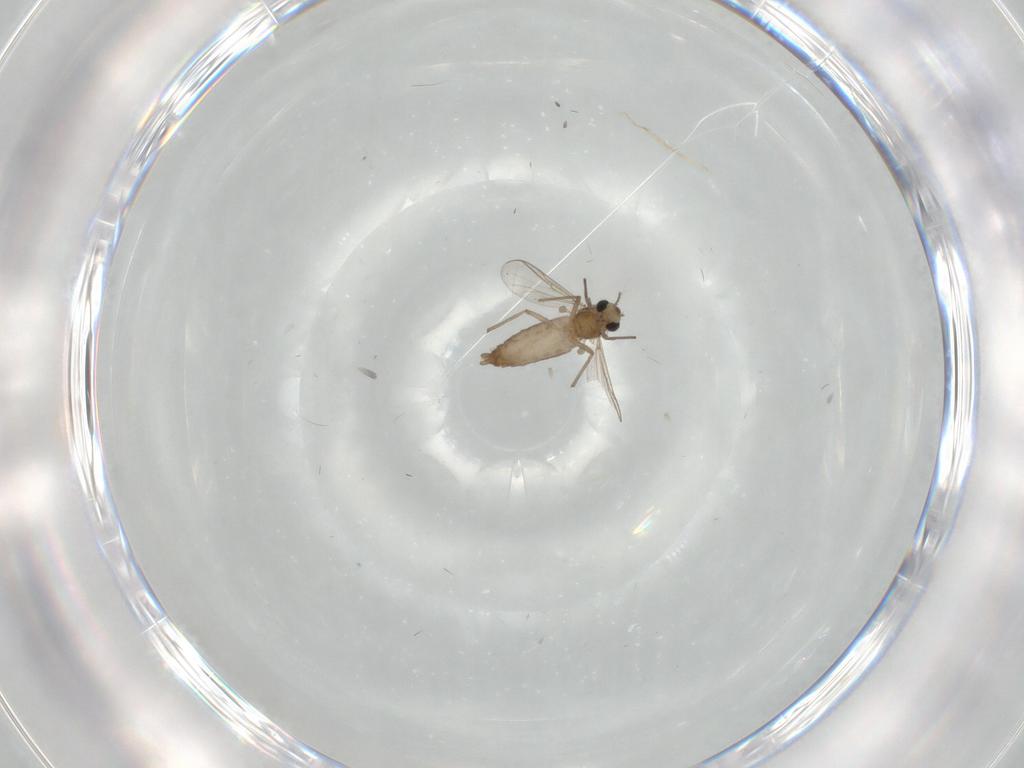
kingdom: Animalia
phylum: Arthropoda
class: Insecta
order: Diptera
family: Chironomidae
